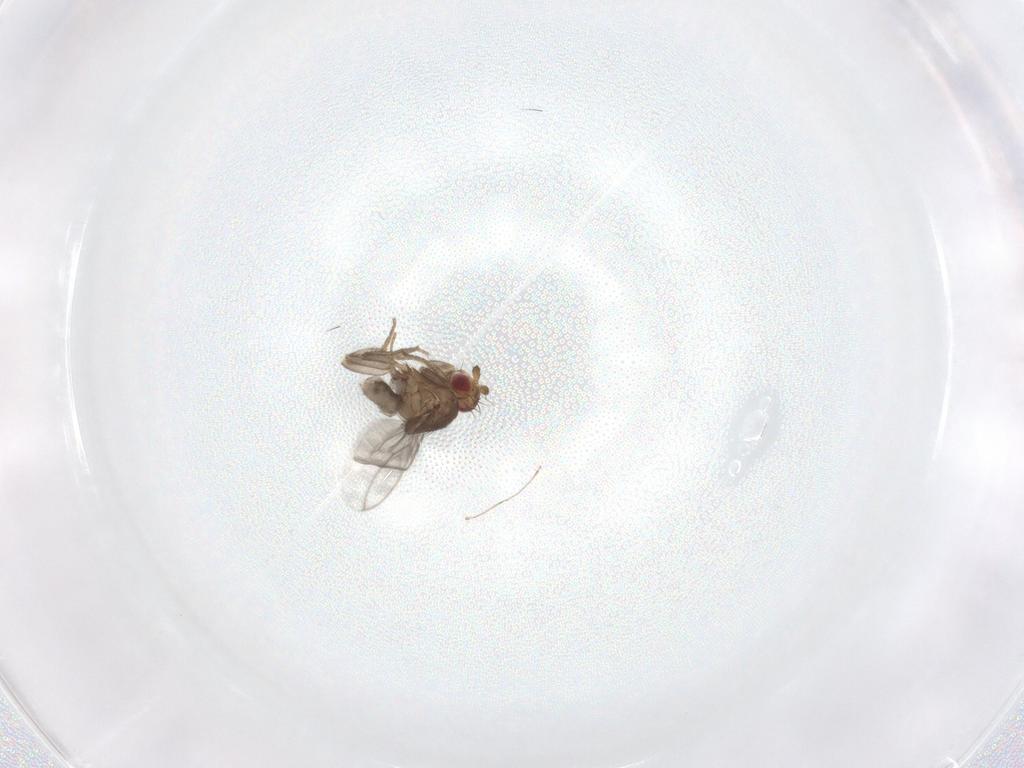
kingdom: Animalia
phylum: Arthropoda
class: Insecta
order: Diptera
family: Sphaeroceridae
